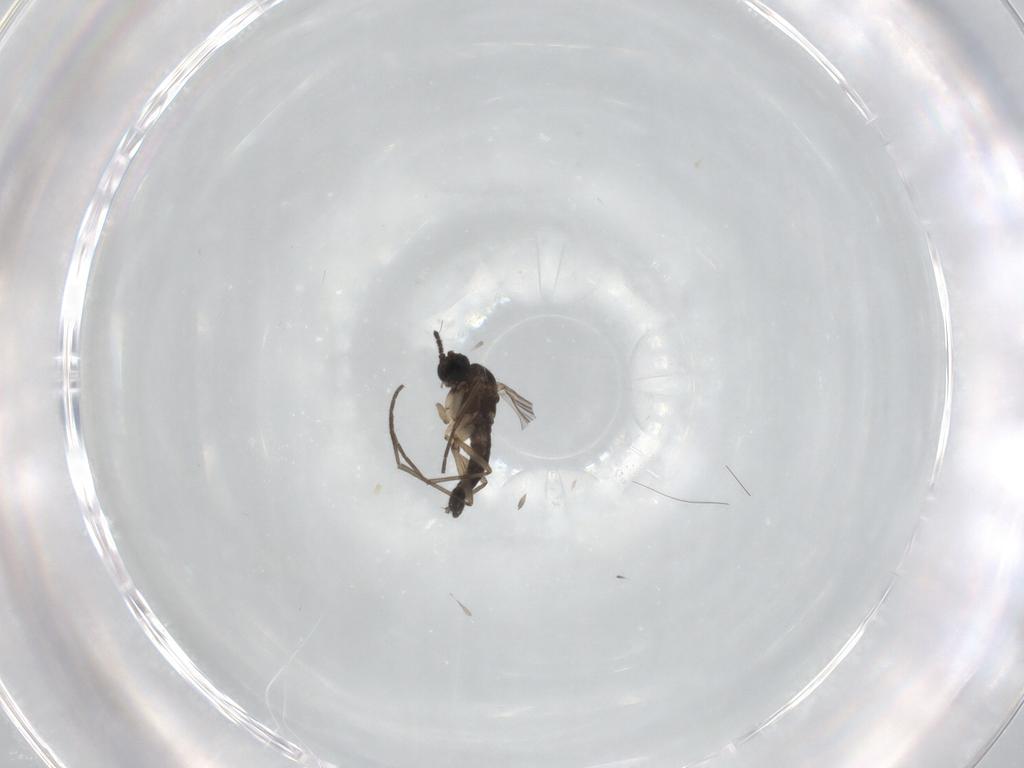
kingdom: Animalia
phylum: Arthropoda
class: Insecta
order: Diptera
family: Sciaridae
